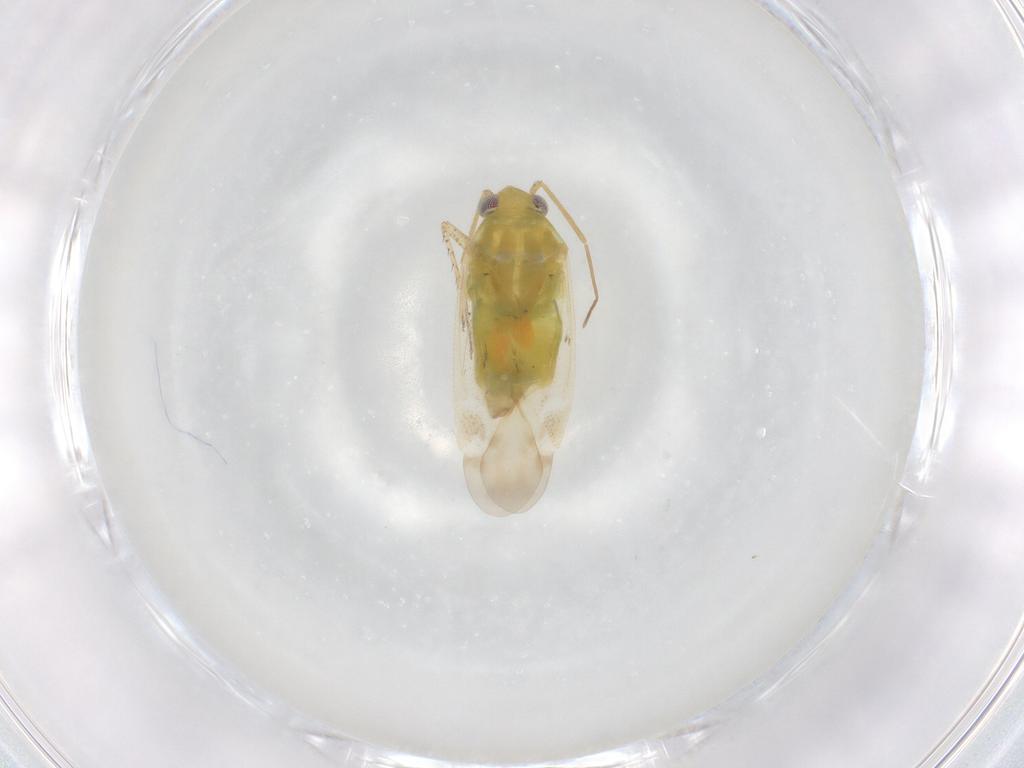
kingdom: Animalia
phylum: Arthropoda
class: Insecta
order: Hemiptera
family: Miridae
